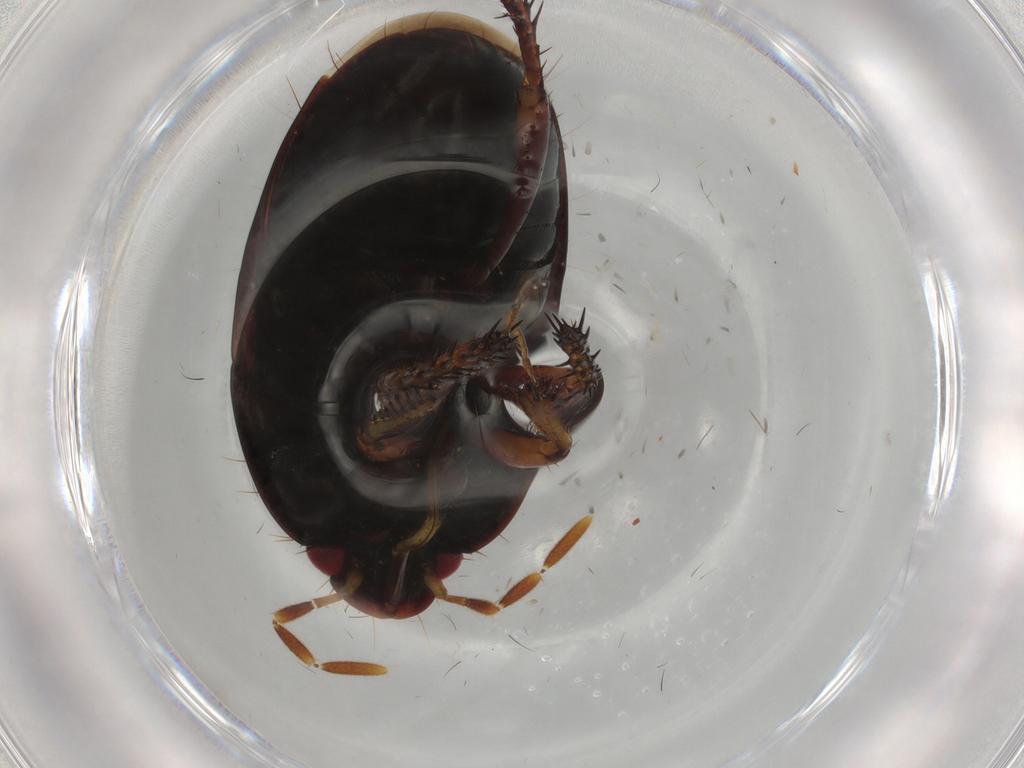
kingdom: Animalia
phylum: Arthropoda
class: Insecta
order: Hemiptera
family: Cydnidae
